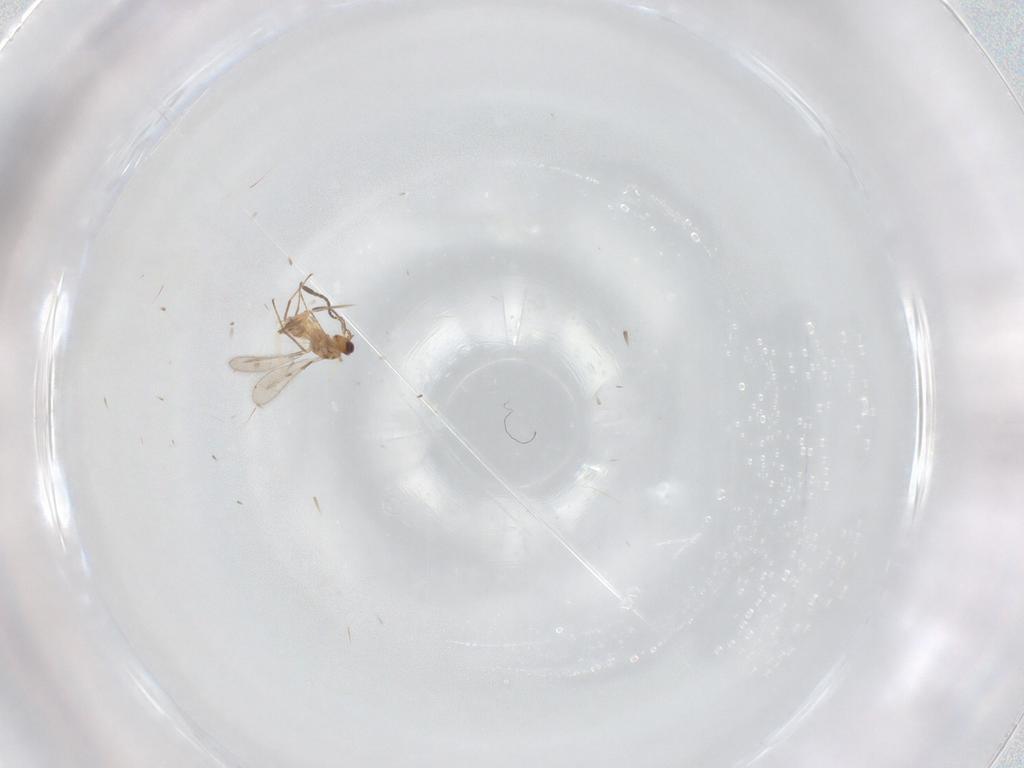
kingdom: Animalia
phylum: Arthropoda
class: Insecta
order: Hymenoptera
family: Mymaridae
